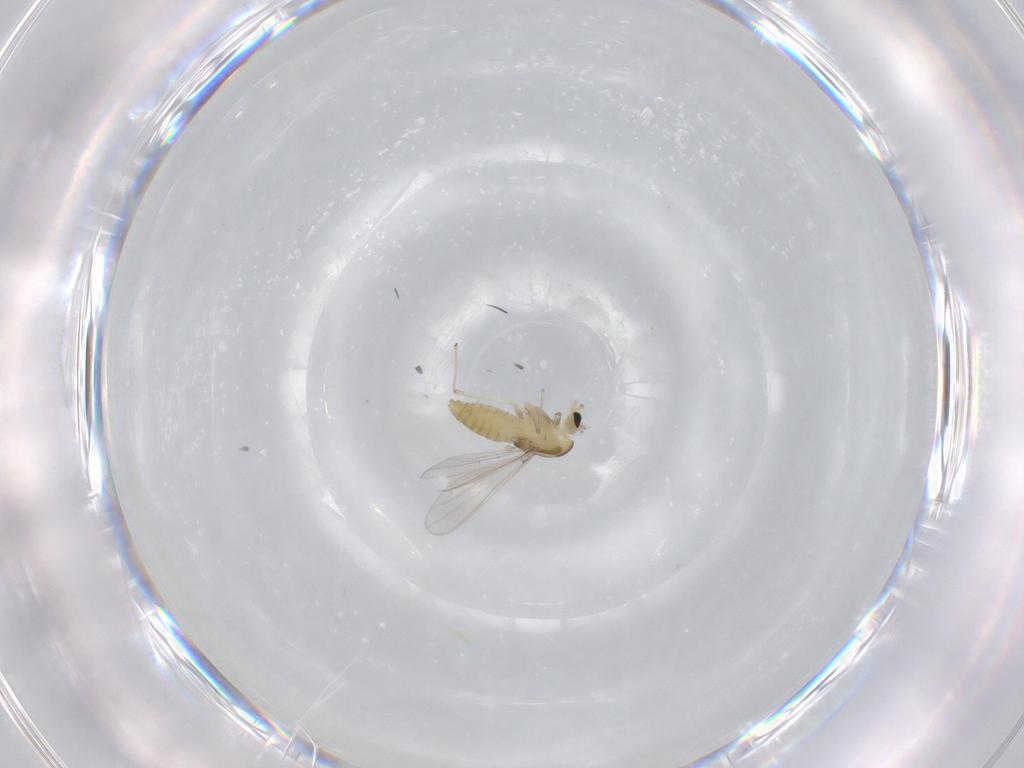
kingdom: Animalia
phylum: Arthropoda
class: Insecta
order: Diptera
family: Chironomidae
